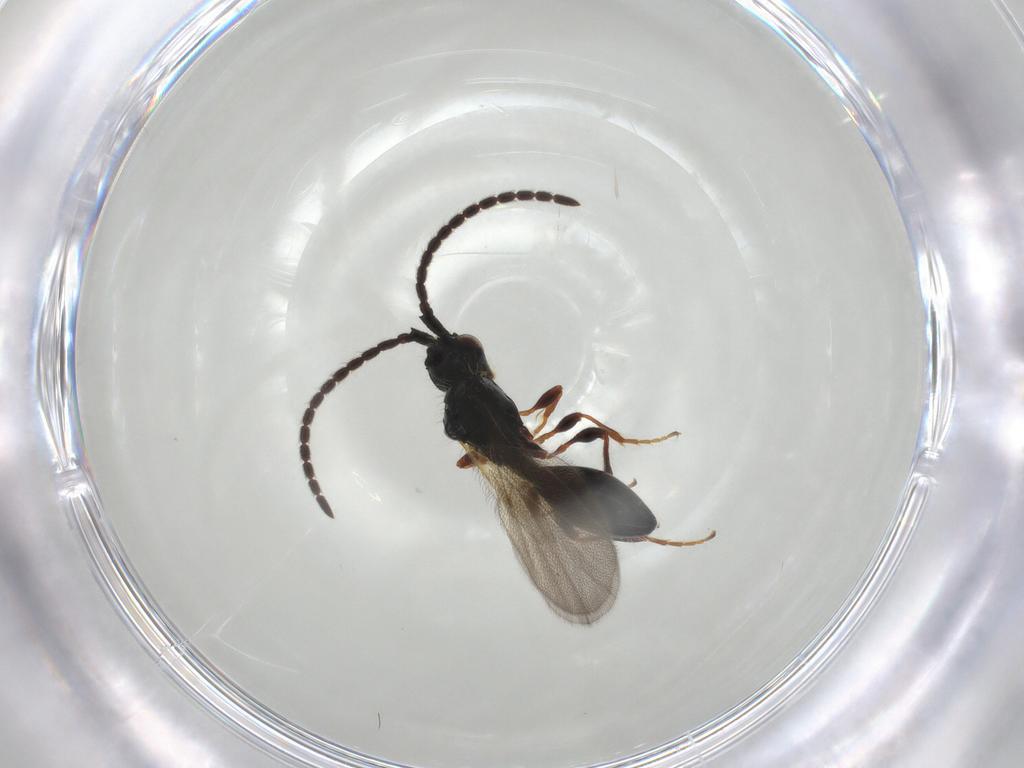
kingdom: Animalia
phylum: Arthropoda
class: Insecta
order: Hymenoptera
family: Diapriidae
